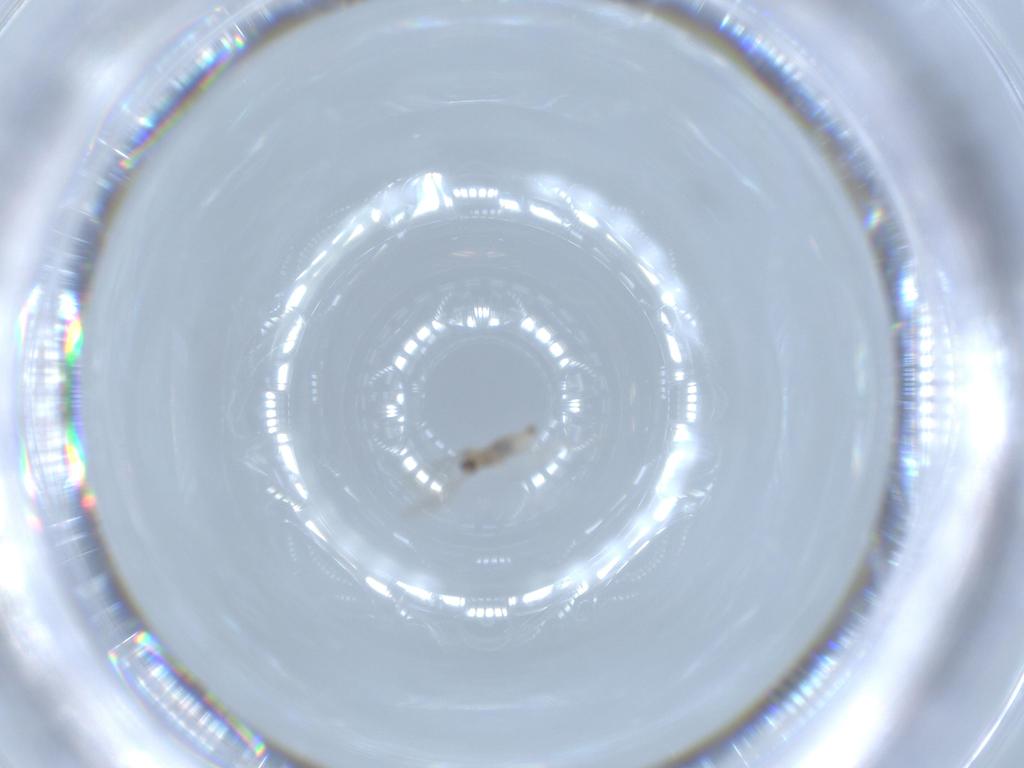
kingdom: Animalia
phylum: Arthropoda
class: Insecta
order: Diptera
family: Cecidomyiidae
